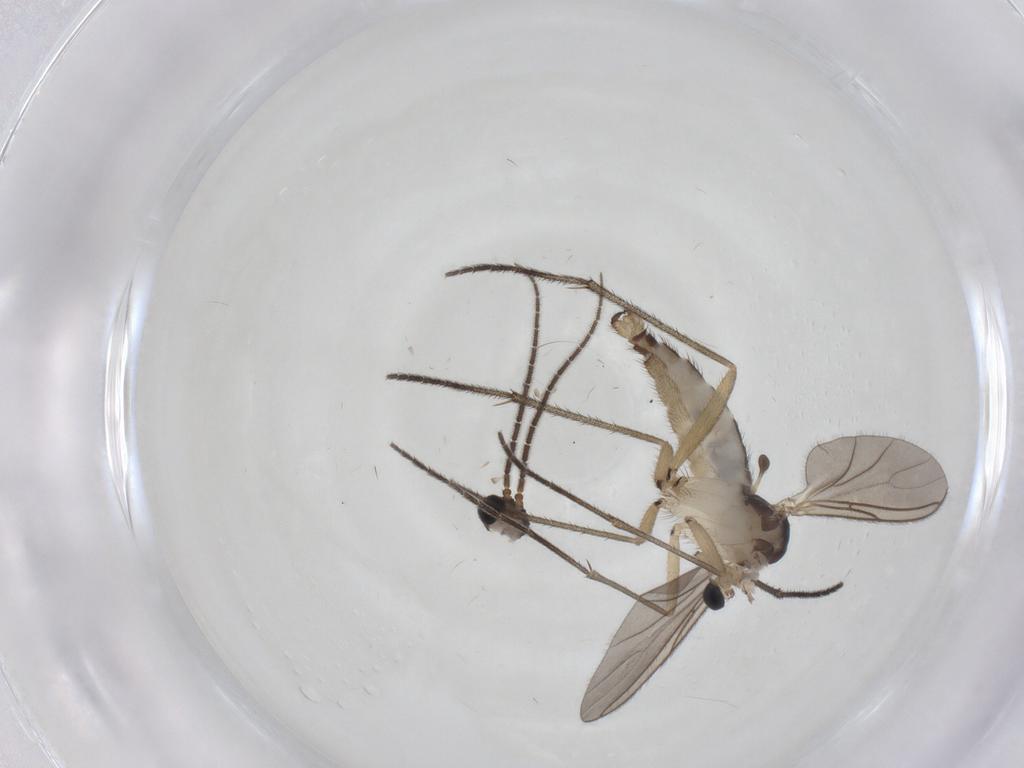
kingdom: Animalia
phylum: Arthropoda
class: Insecta
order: Diptera
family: Sciaridae
